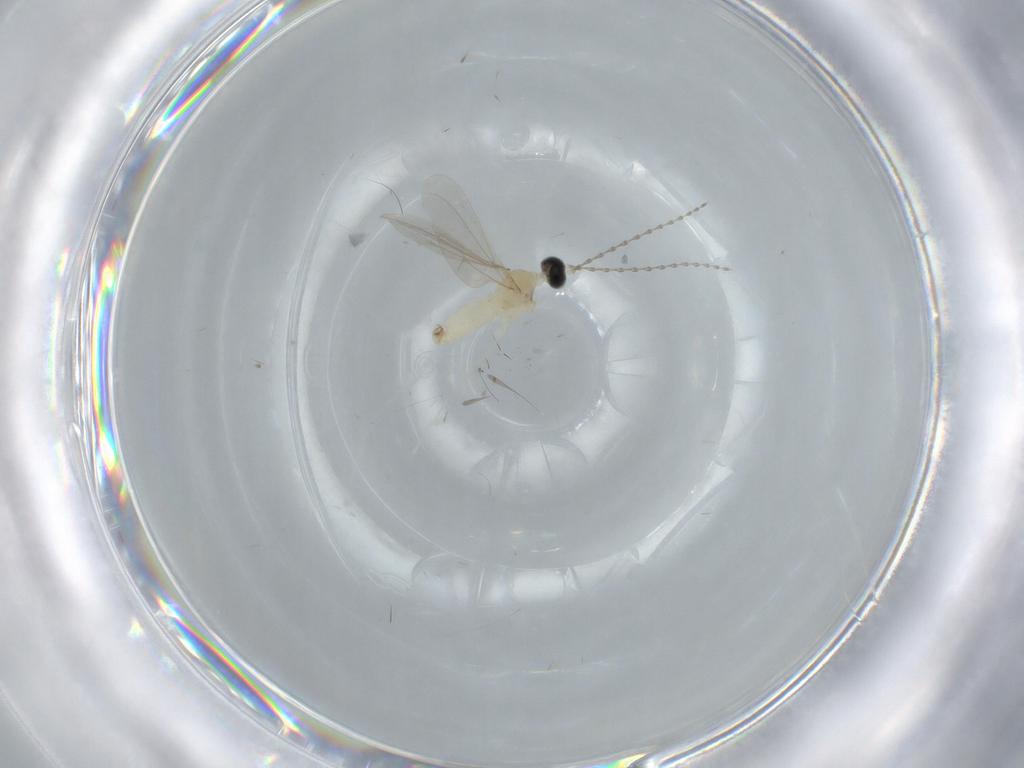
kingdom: Animalia
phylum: Arthropoda
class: Insecta
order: Diptera
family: Cecidomyiidae
